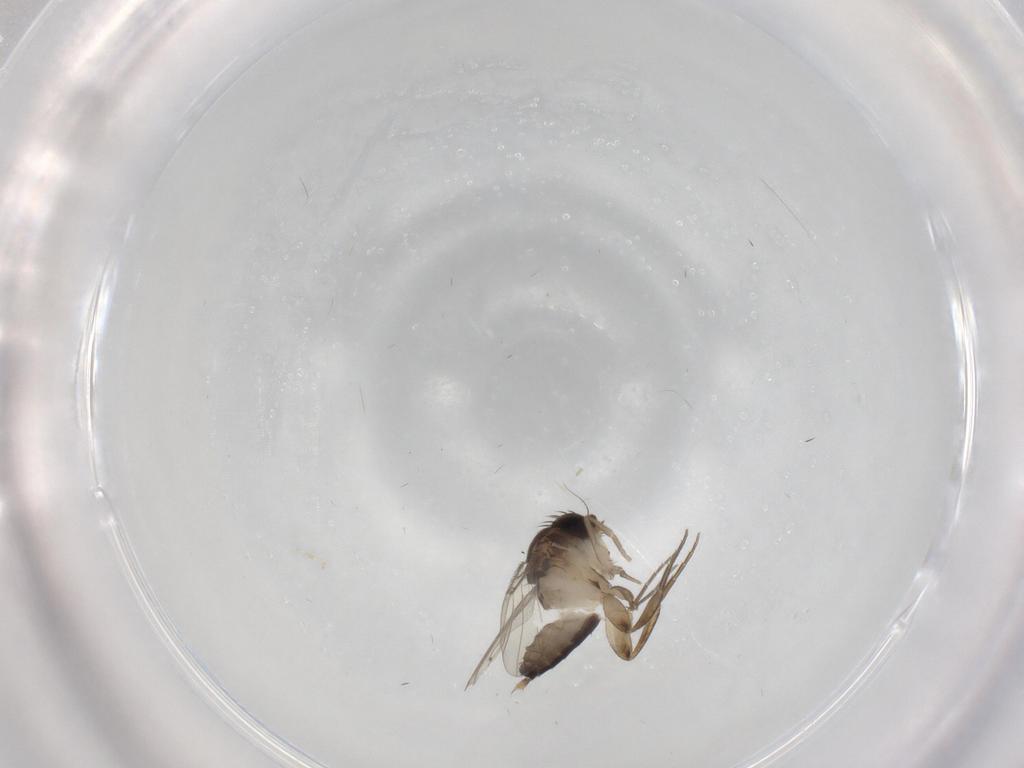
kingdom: Animalia
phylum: Arthropoda
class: Insecta
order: Diptera
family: Phoridae
